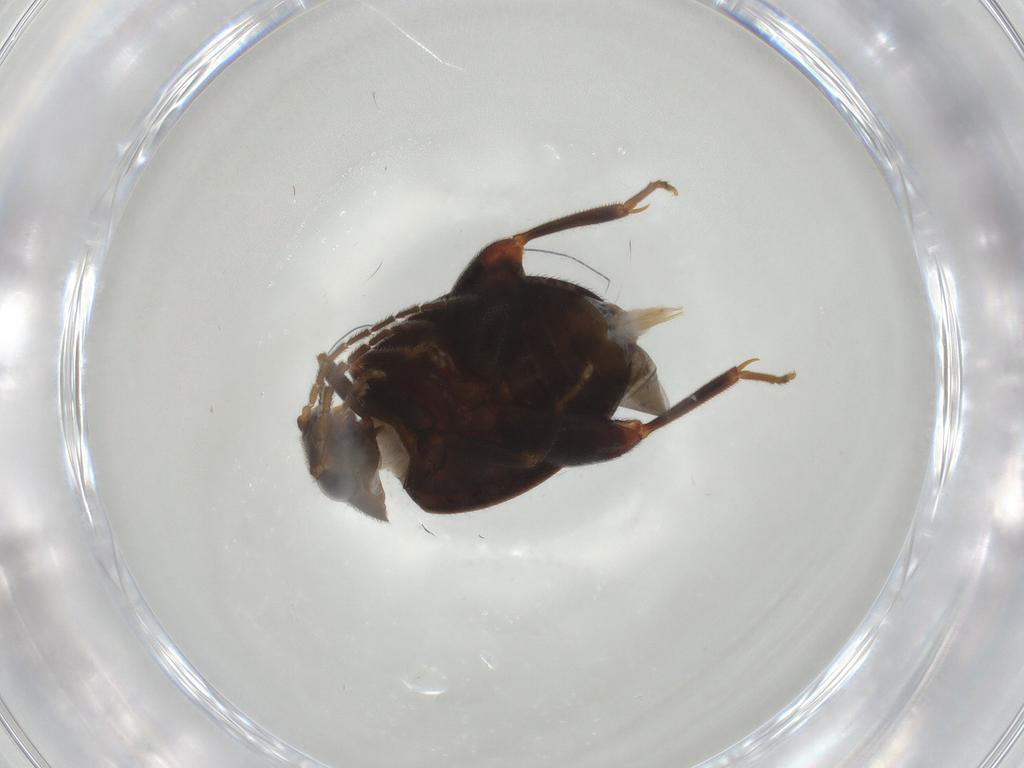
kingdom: Animalia
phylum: Arthropoda
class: Insecta
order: Coleoptera
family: Scirtidae
